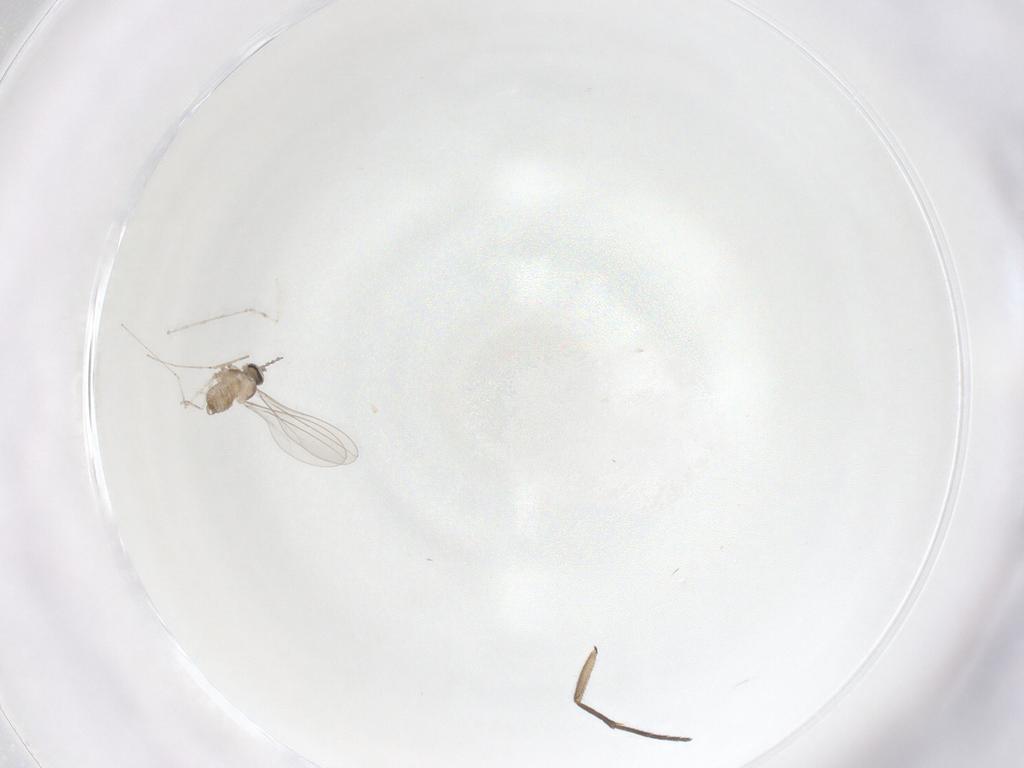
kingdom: Animalia
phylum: Arthropoda
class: Insecta
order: Diptera
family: Cecidomyiidae
